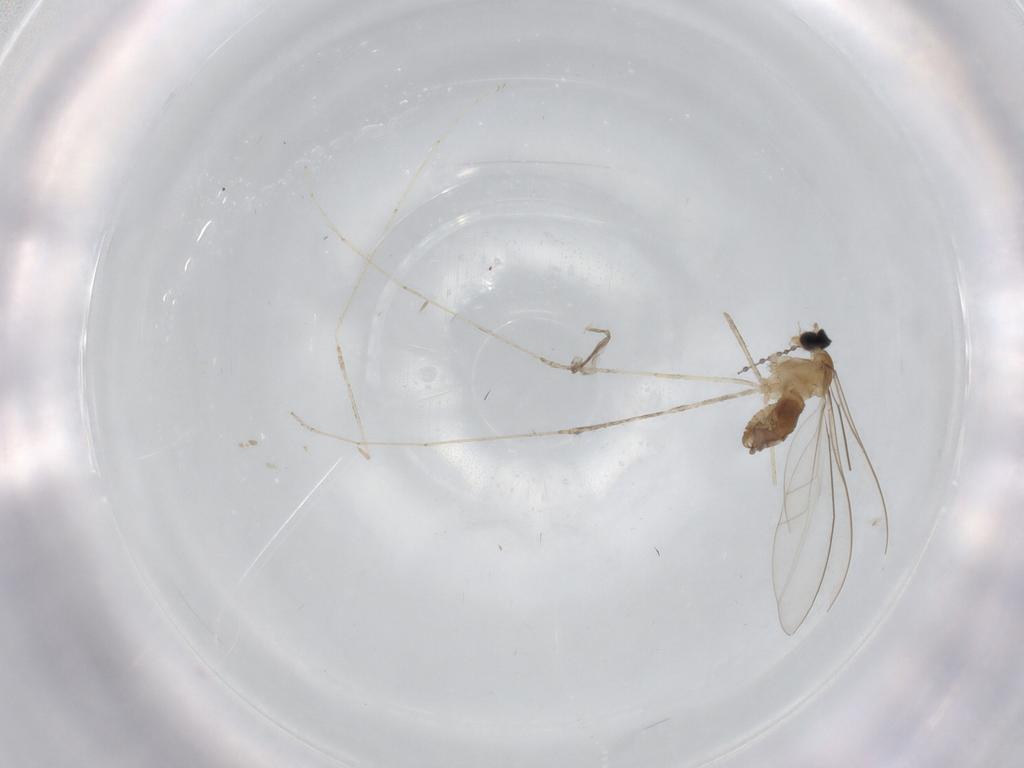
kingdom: Animalia
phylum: Arthropoda
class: Insecta
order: Diptera
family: Cecidomyiidae
